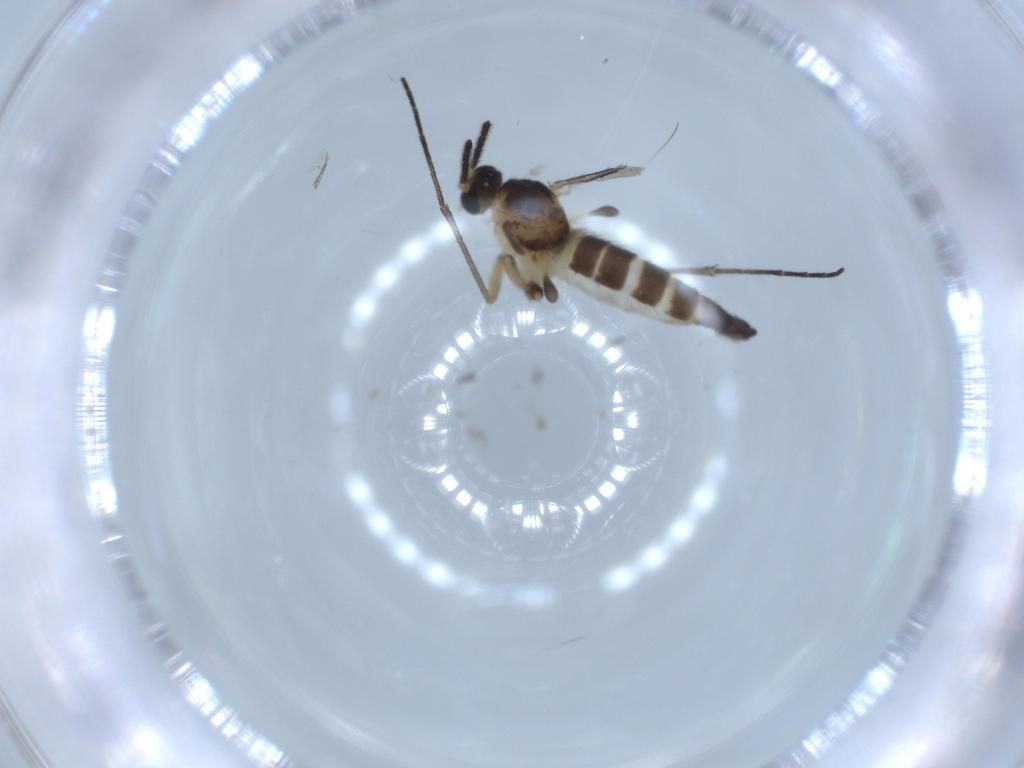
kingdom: Animalia
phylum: Arthropoda
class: Insecta
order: Diptera
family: Sciaridae
